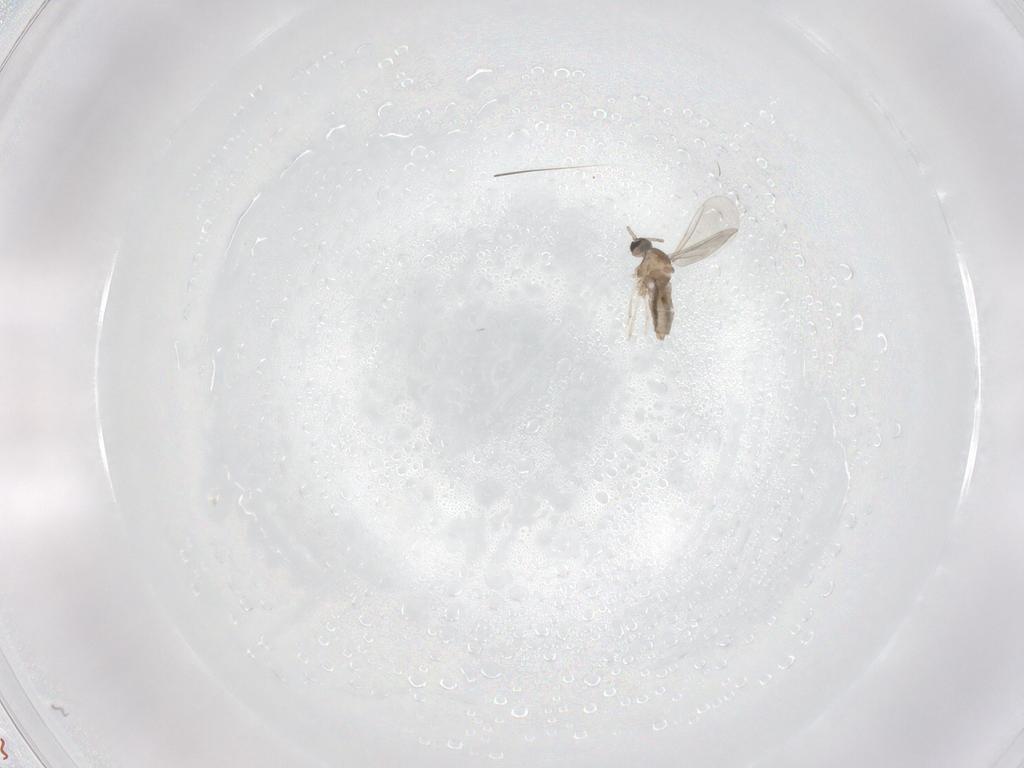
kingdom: Animalia
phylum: Arthropoda
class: Insecta
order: Diptera
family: Cecidomyiidae
